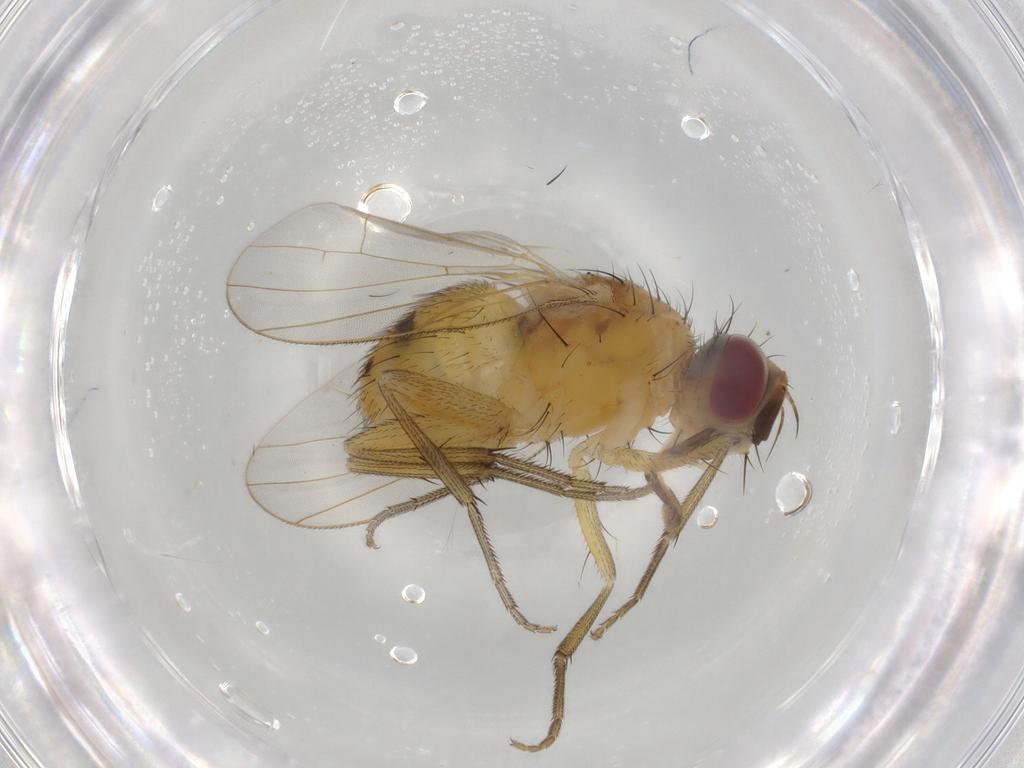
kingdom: Animalia
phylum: Arthropoda
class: Insecta
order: Diptera
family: Muscidae
